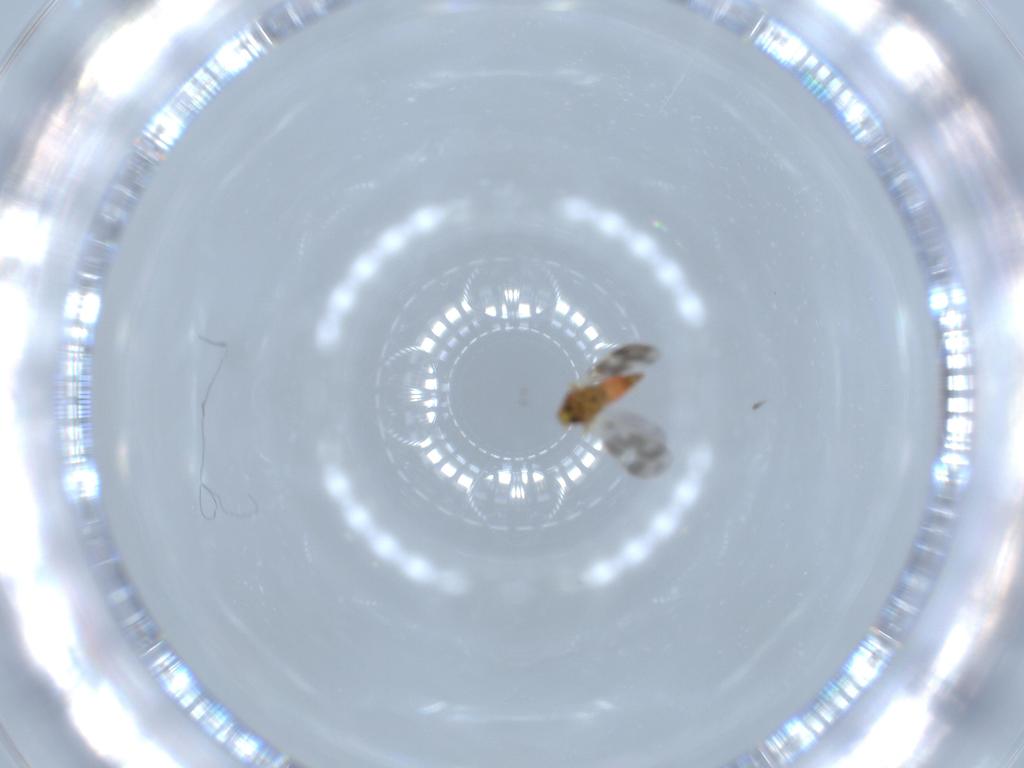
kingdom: Animalia
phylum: Arthropoda
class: Insecta
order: Hemiptera
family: Aleyrodidae
